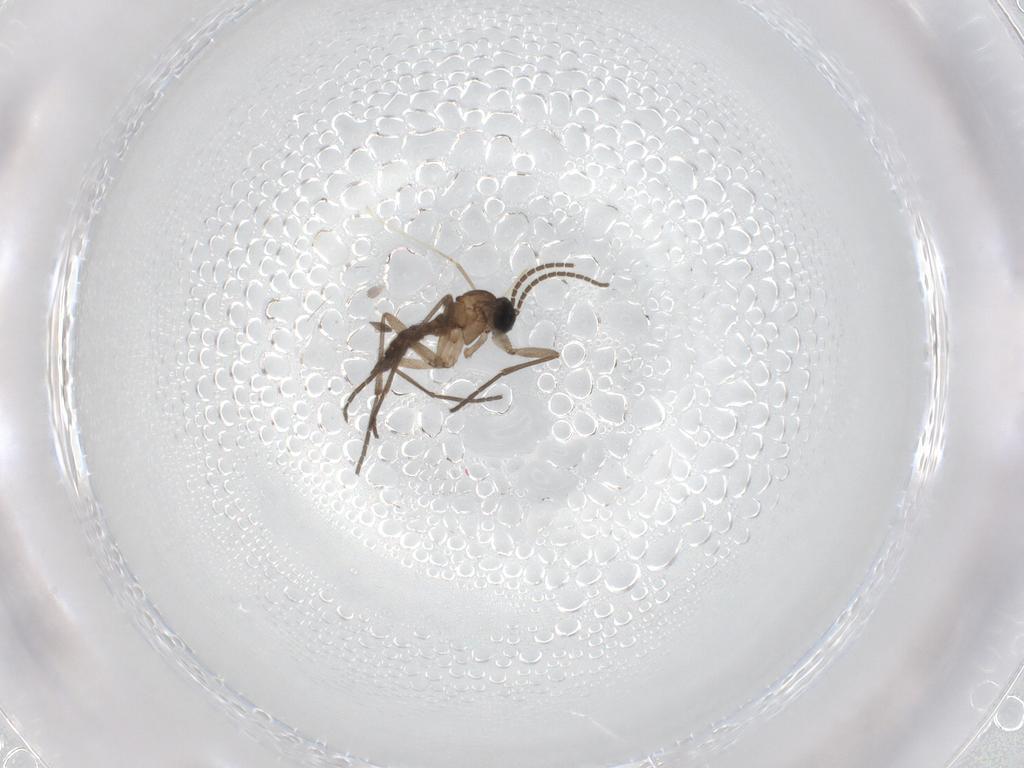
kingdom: Animalia
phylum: Arthropoda
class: Insecta
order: Diptera
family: Sciaridae
